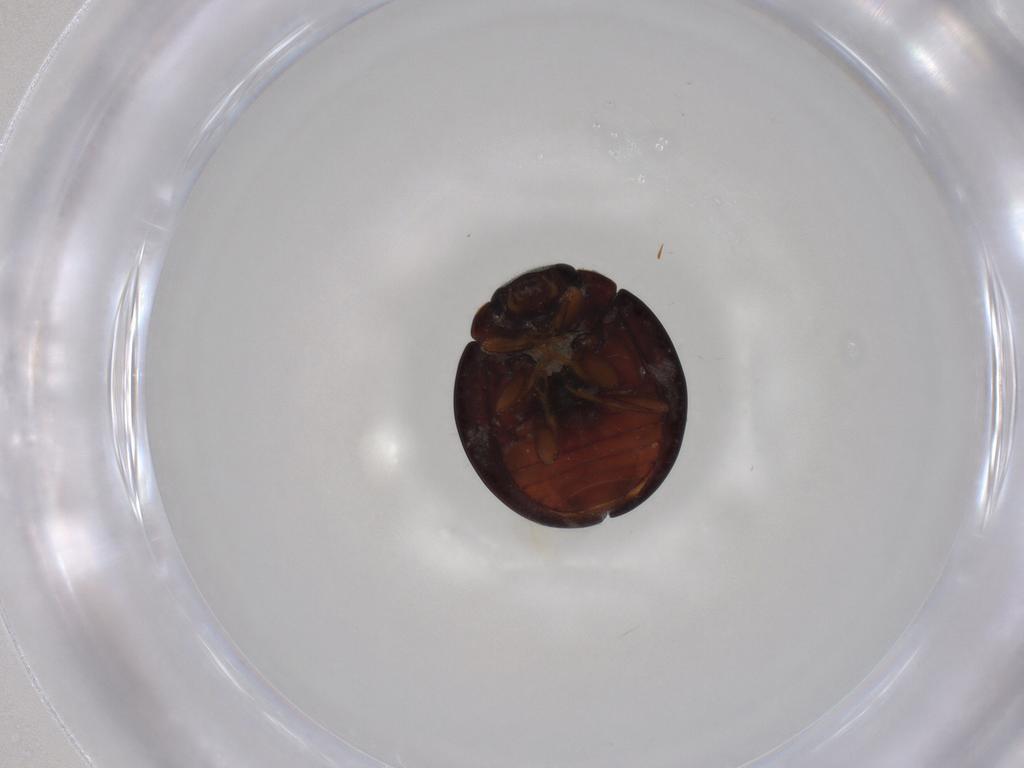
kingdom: Animalia
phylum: Arthropoda
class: Insecta
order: Coleoptera
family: Coccinellidae
